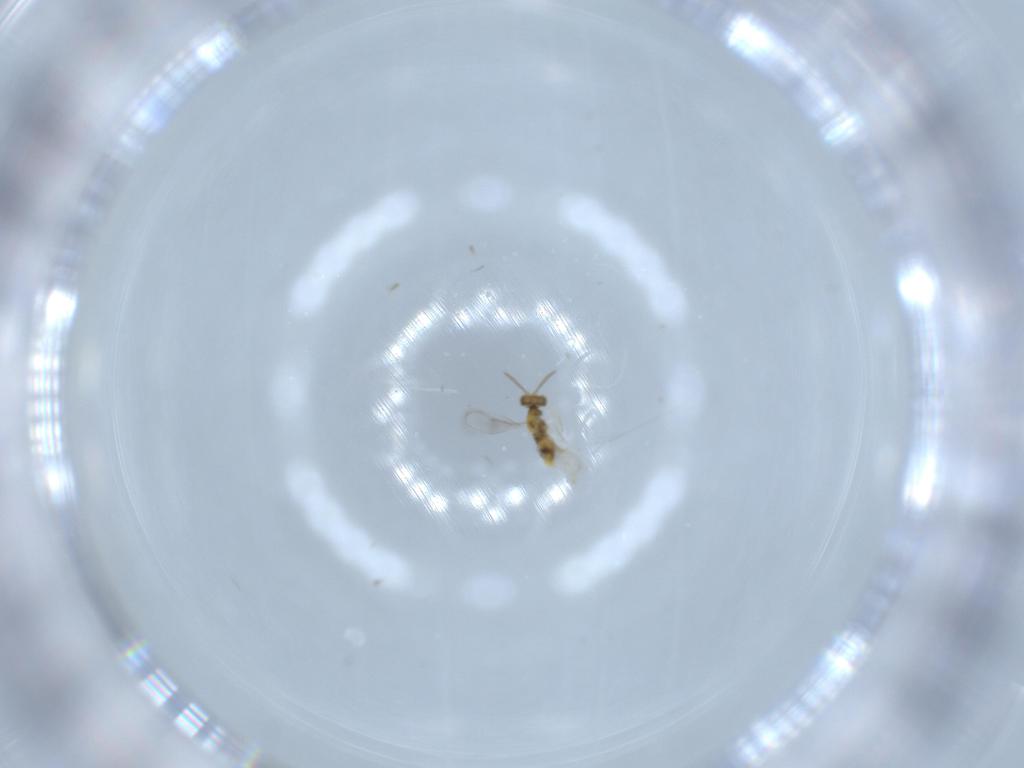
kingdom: Animalia
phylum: Arthropoda
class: Insecta
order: Hymenoptera
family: Aphelinidae
